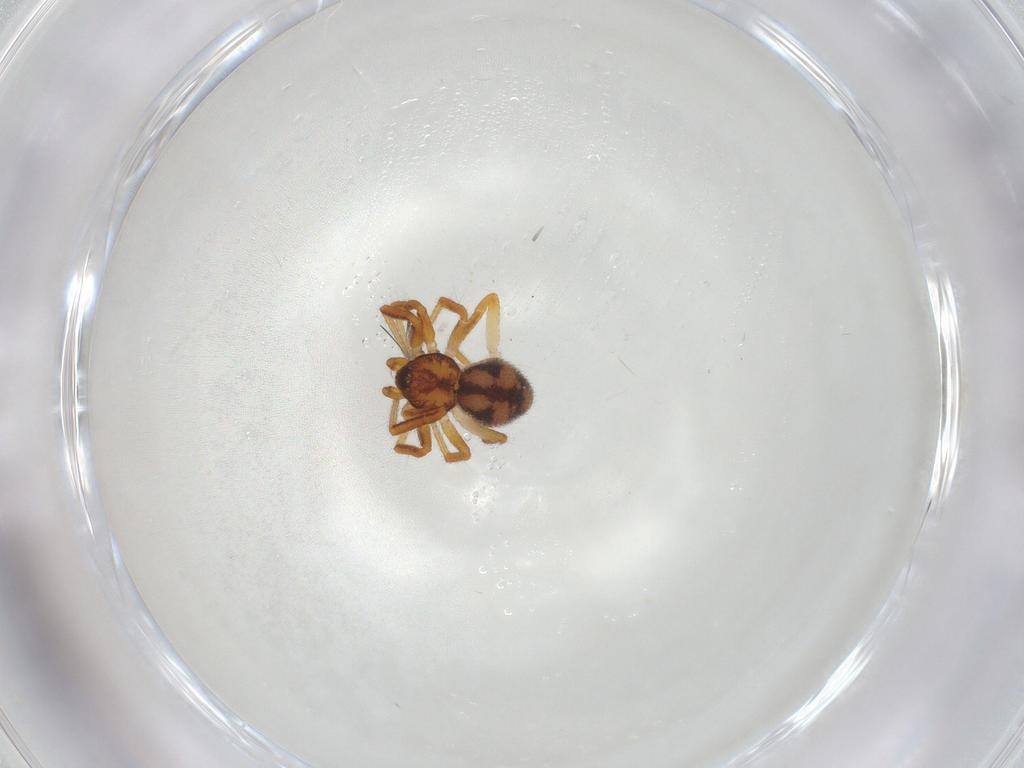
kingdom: Animalia
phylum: Arthropoda
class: Arachnida
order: Araneae
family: Theridiidae
